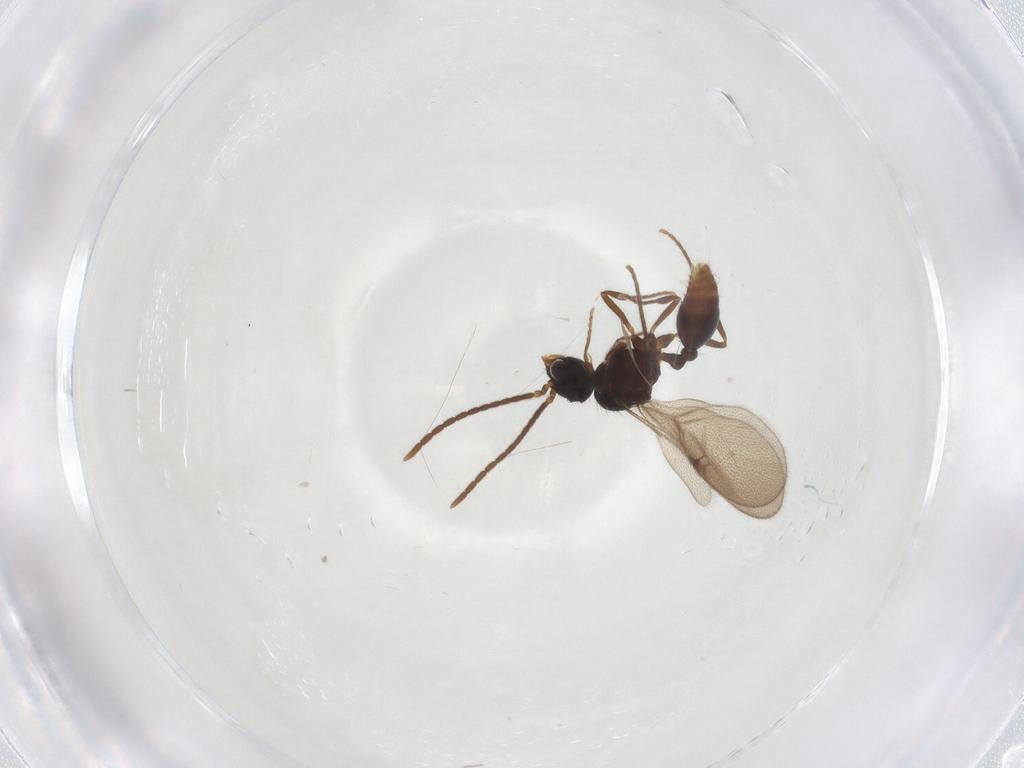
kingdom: Animalia
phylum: Arthropoda
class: Insecta
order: Hymenoptera
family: Formicidae
